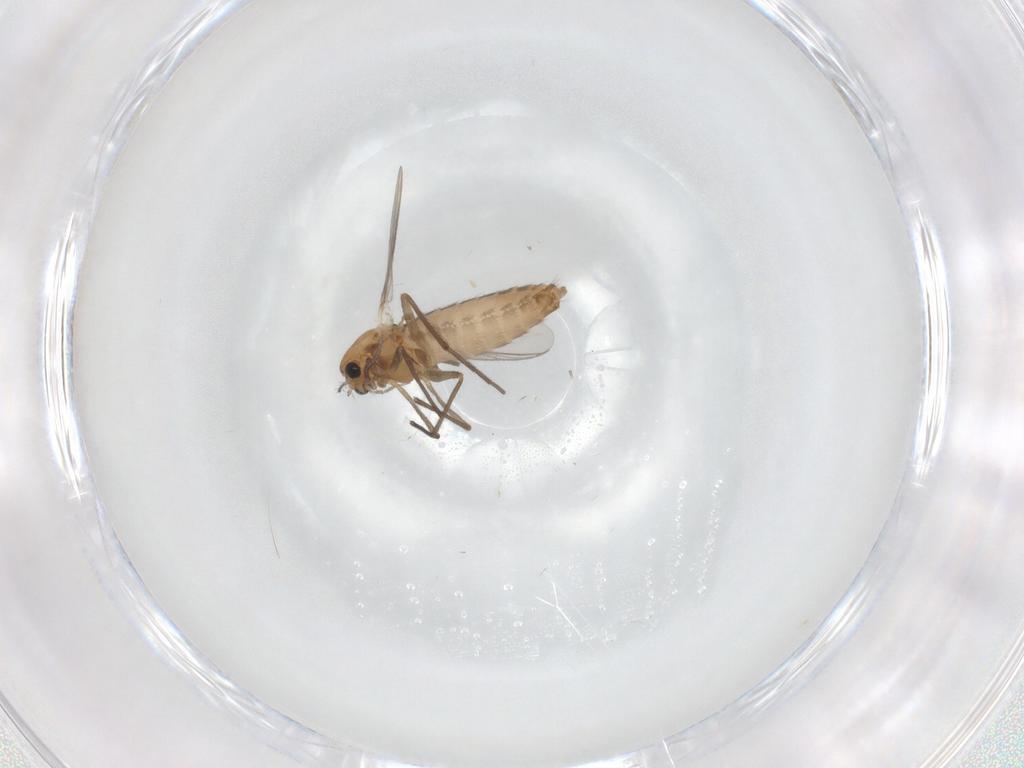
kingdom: Animalia
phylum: Arthropoda
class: Insecta
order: Diptera
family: Chironomidae
